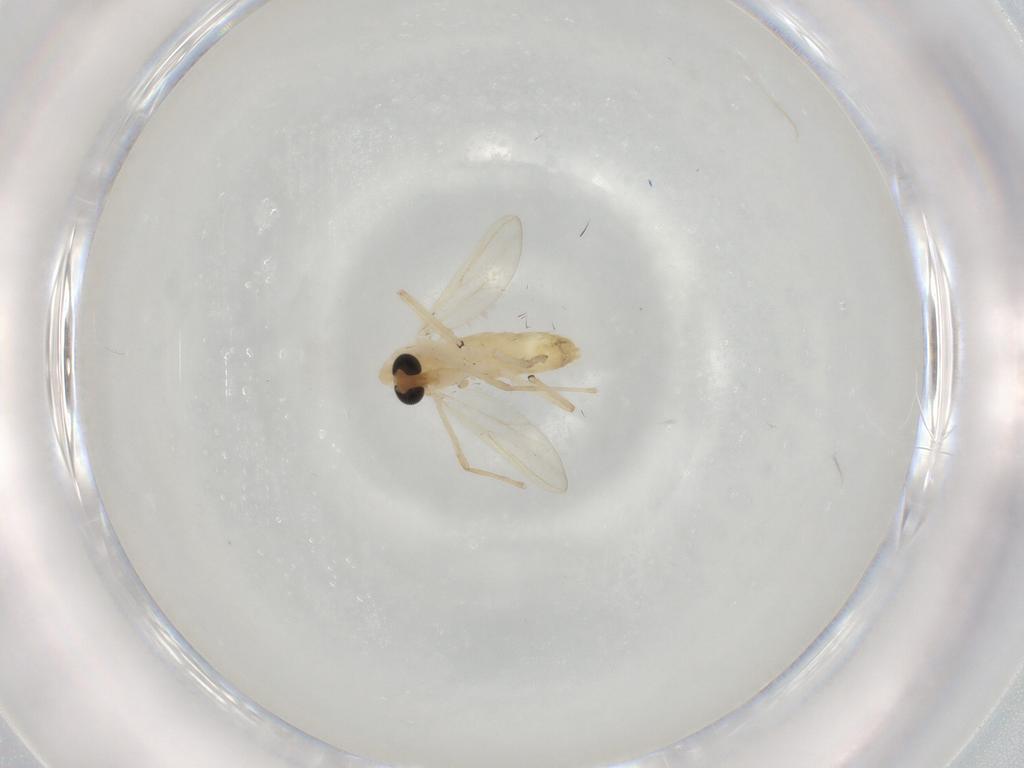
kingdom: Animalia
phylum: Arthropoda
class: Insecta
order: Diptera
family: Chironomidae
